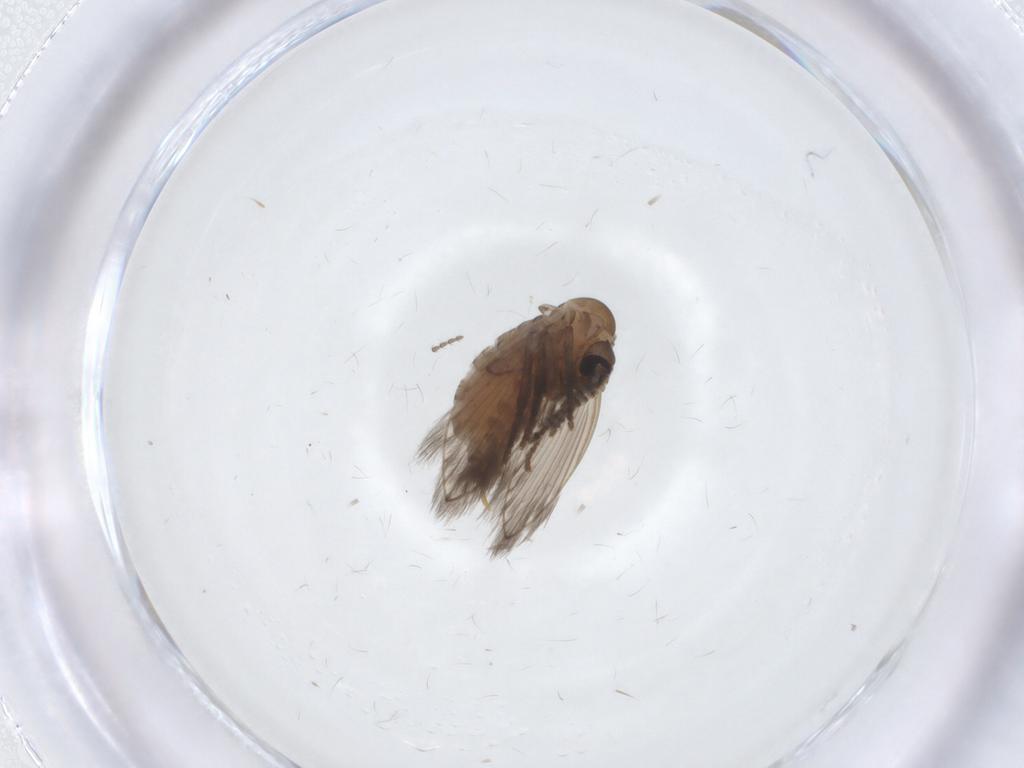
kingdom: Animalia
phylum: Arthropoda
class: Insecta
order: Diptera
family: Psychodidae
